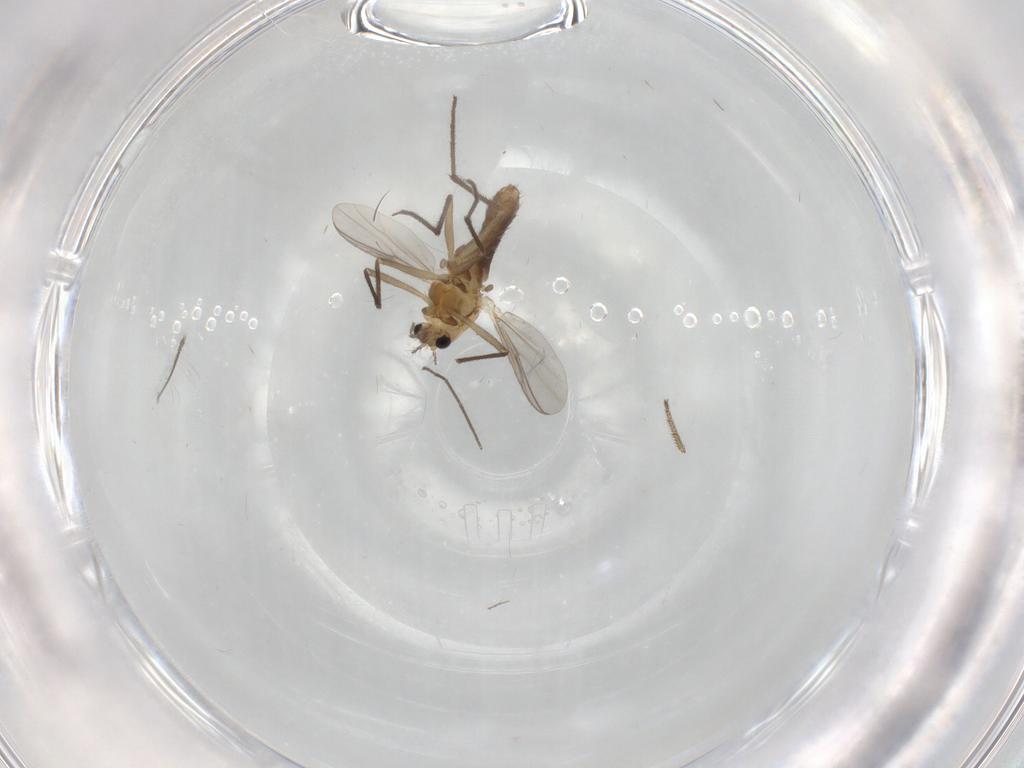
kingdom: Animalia
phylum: Arthropoda
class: Insecta
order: Diptera
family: Chironomidae
